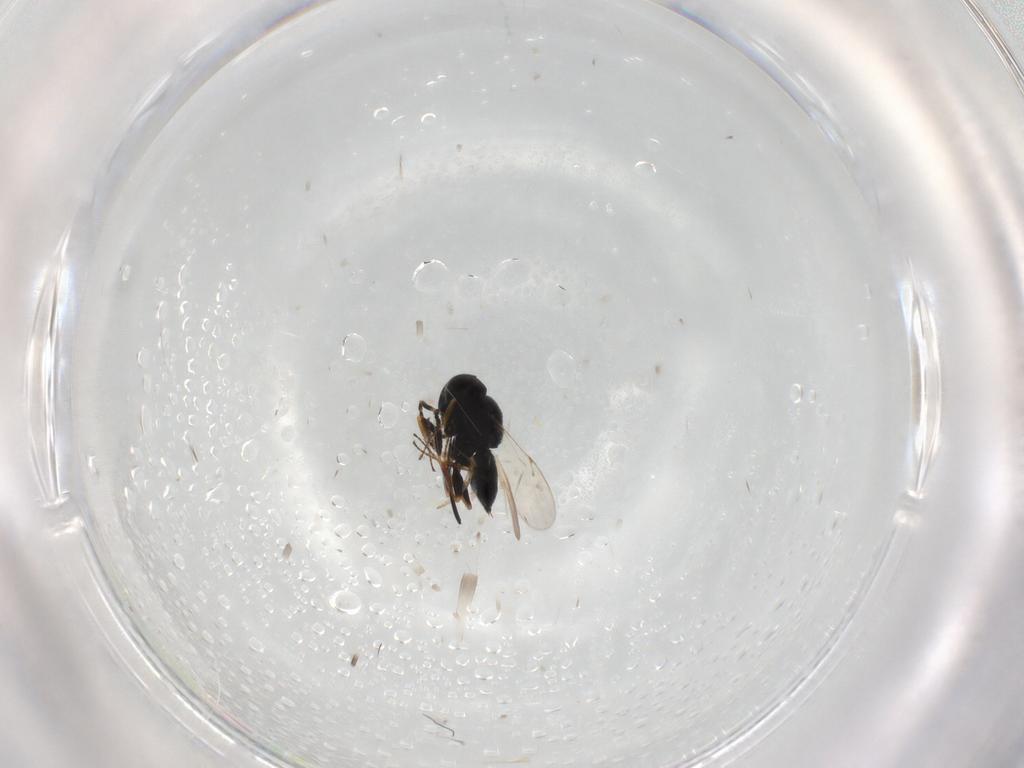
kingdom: Animalia
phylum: Arthropoda
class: Insecta
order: Hymenoptera
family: Scelionidae
